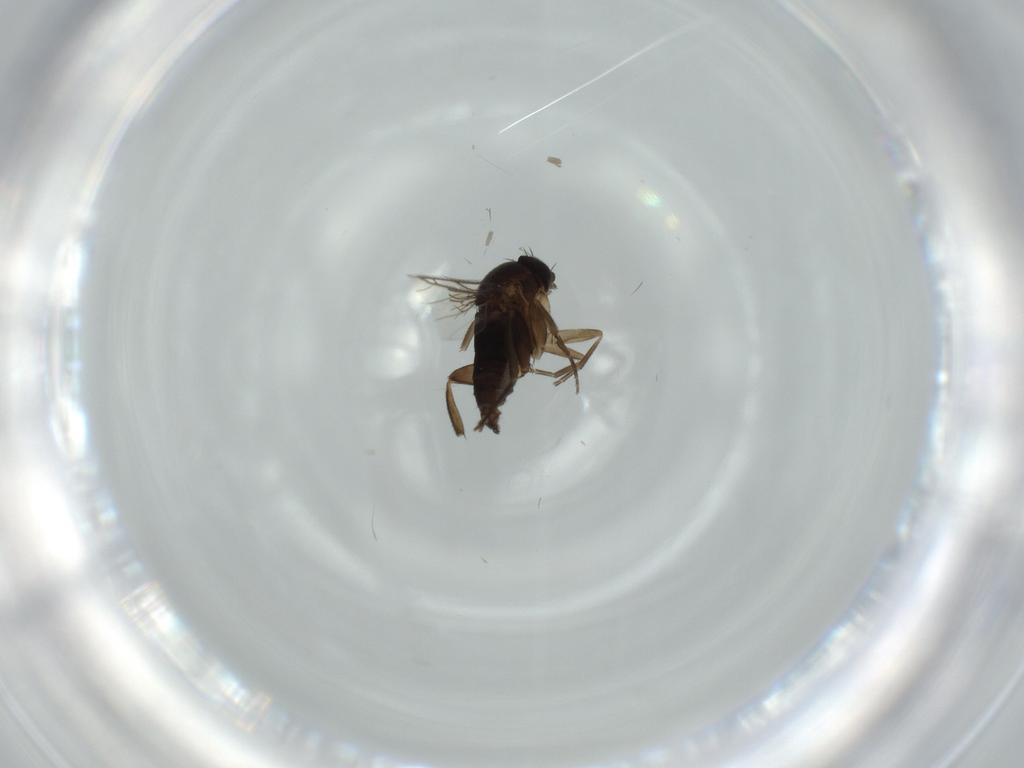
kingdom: Animalia
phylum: Arthropoda
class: Insecta
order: Diptera
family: Phoridae
